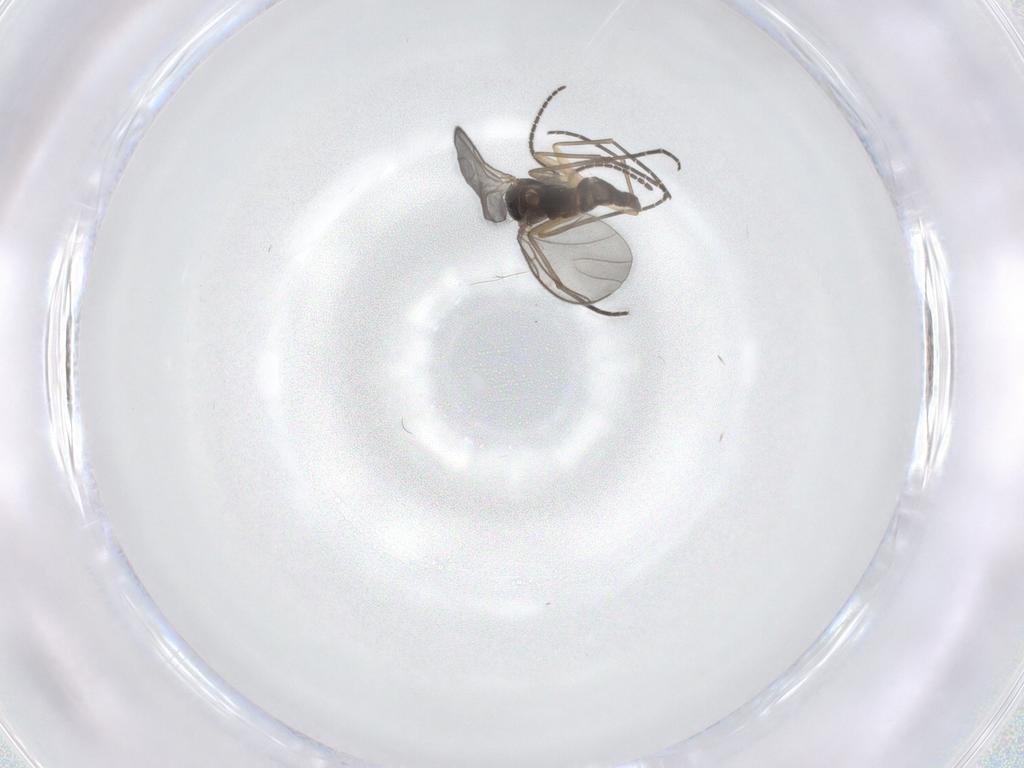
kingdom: Animalia
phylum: Arthropoda
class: Insecta
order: Diptera
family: Sciaridae
